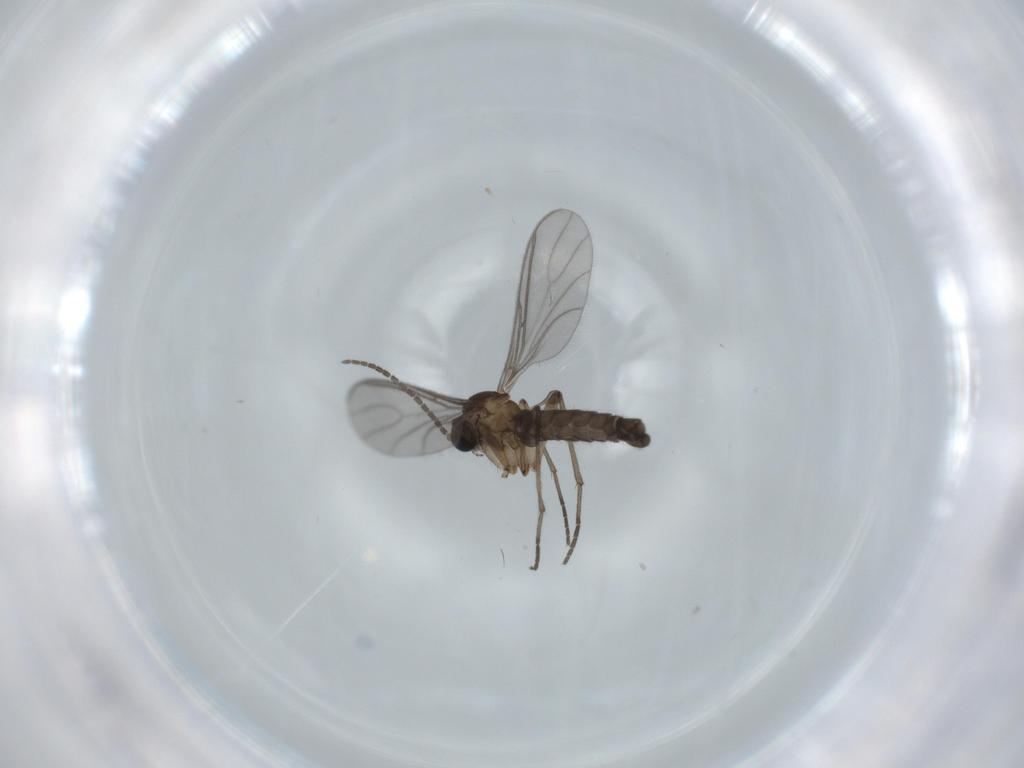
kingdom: Animalia
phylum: Arthropoda
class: Insecta
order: Diptera
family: Sciaridae
